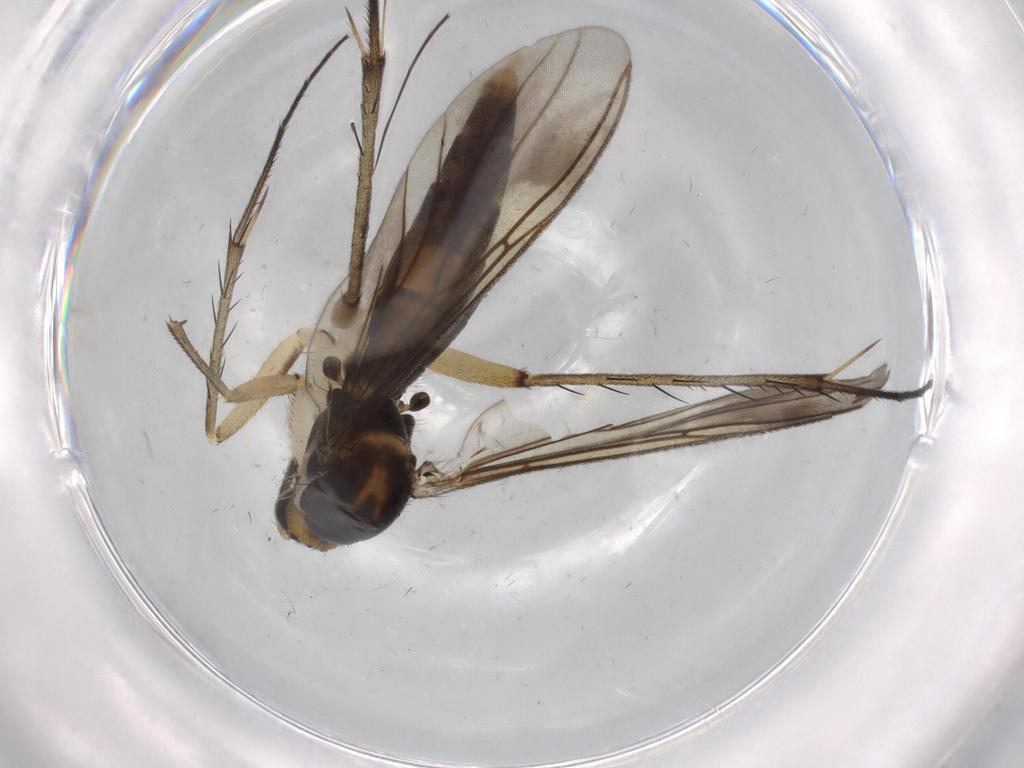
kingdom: Animalia
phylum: Arthropoda
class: Insecta
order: Diptera
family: Mycetophilidae
